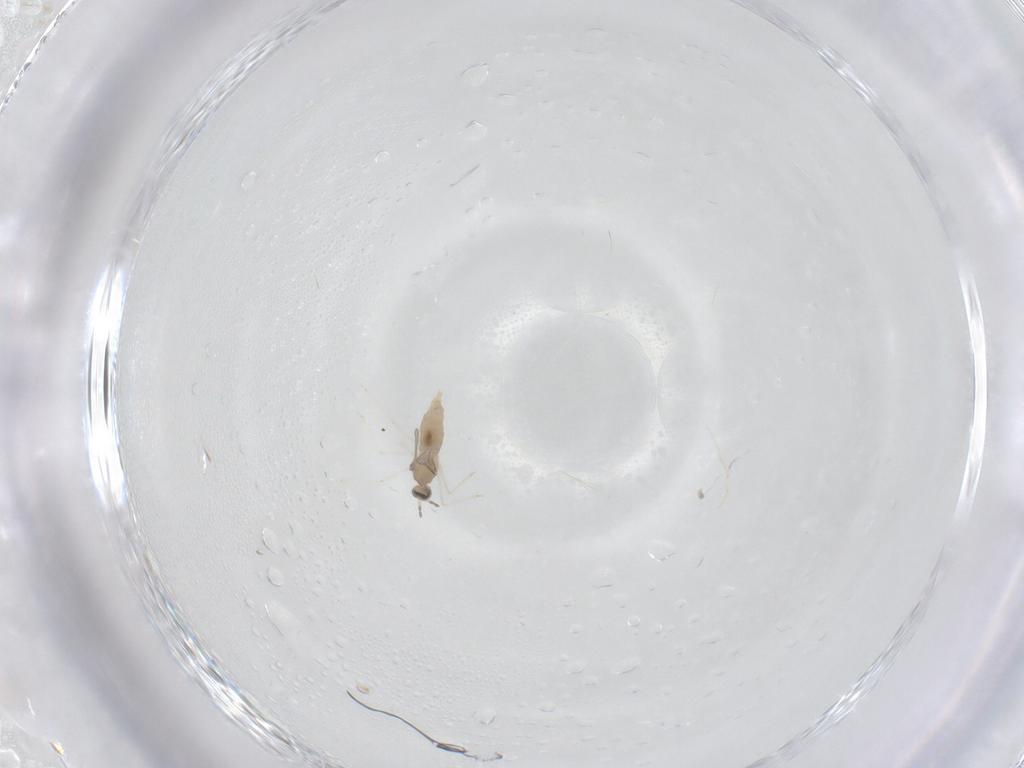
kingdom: Animalia
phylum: Arthropoda
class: Insecta
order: Diptera
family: Cecidomyiidae
